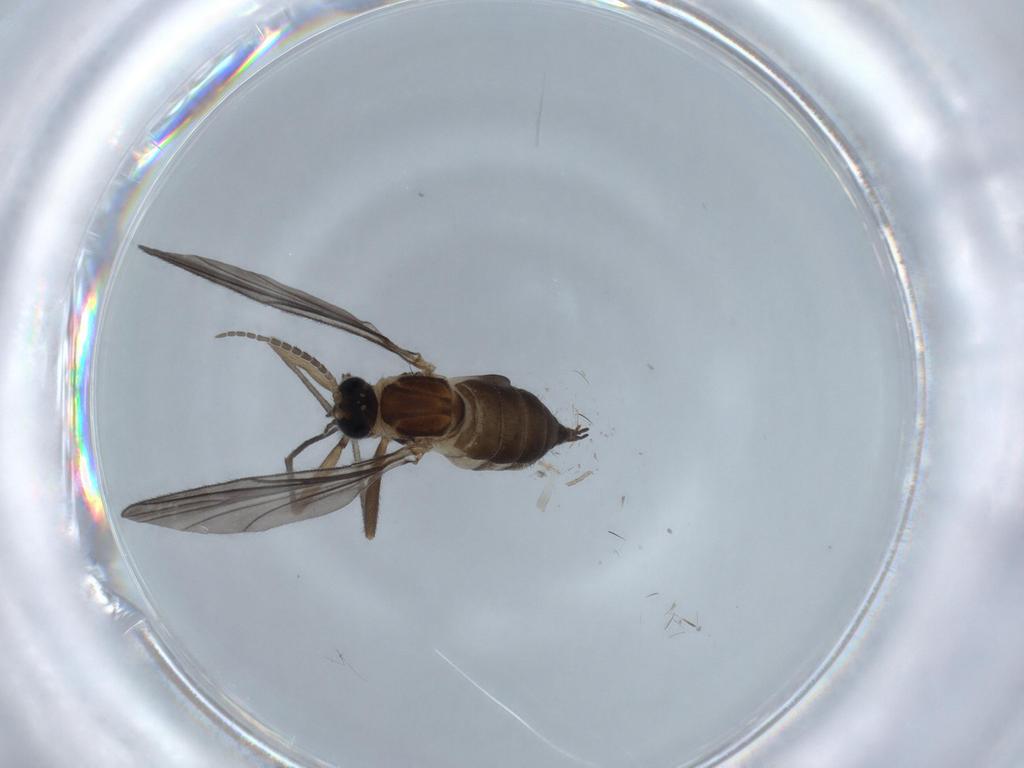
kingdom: Animalia
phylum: Arthropoda
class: Insecta
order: Diptera
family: Sciaridae
